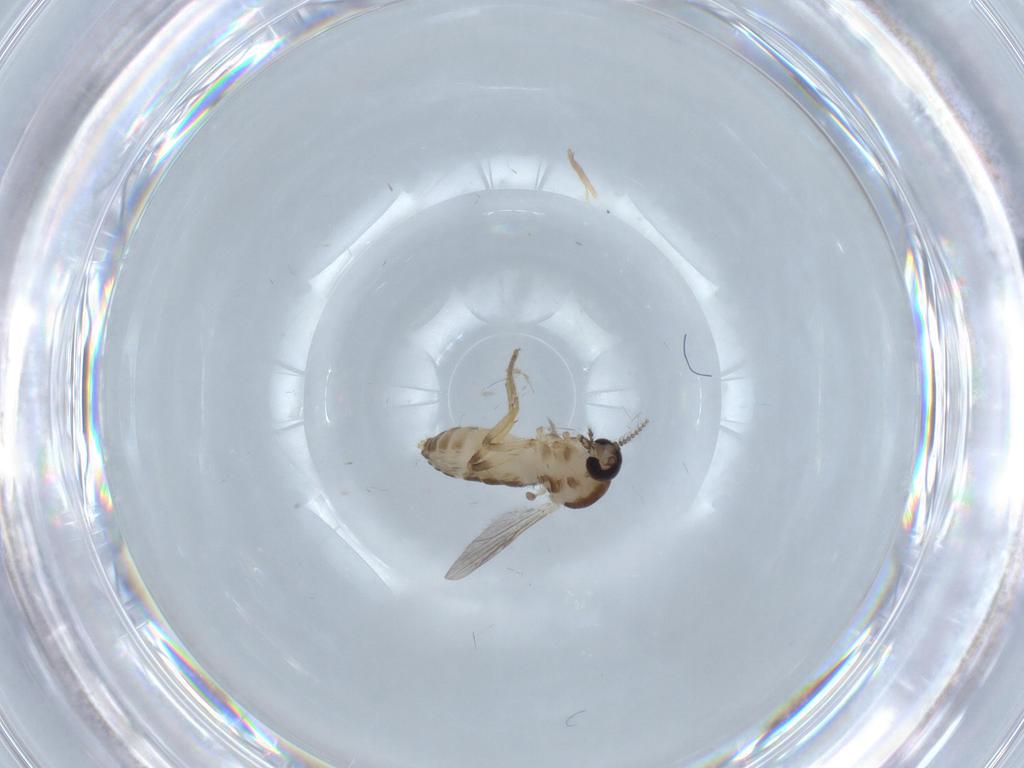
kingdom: Animalia
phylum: Arthropoda
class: Insecta
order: Diptera
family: Ceratopogonidae
